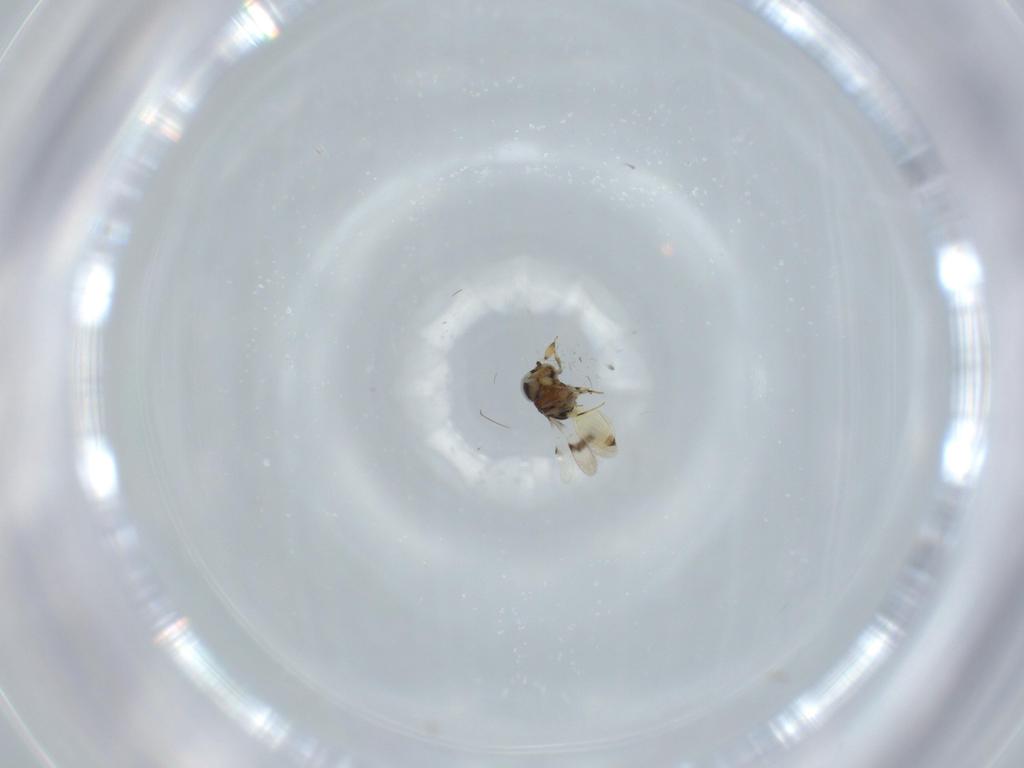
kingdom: Animalia
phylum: Arthropoda
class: Insecta
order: Hymenoptera
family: Scelionidae
